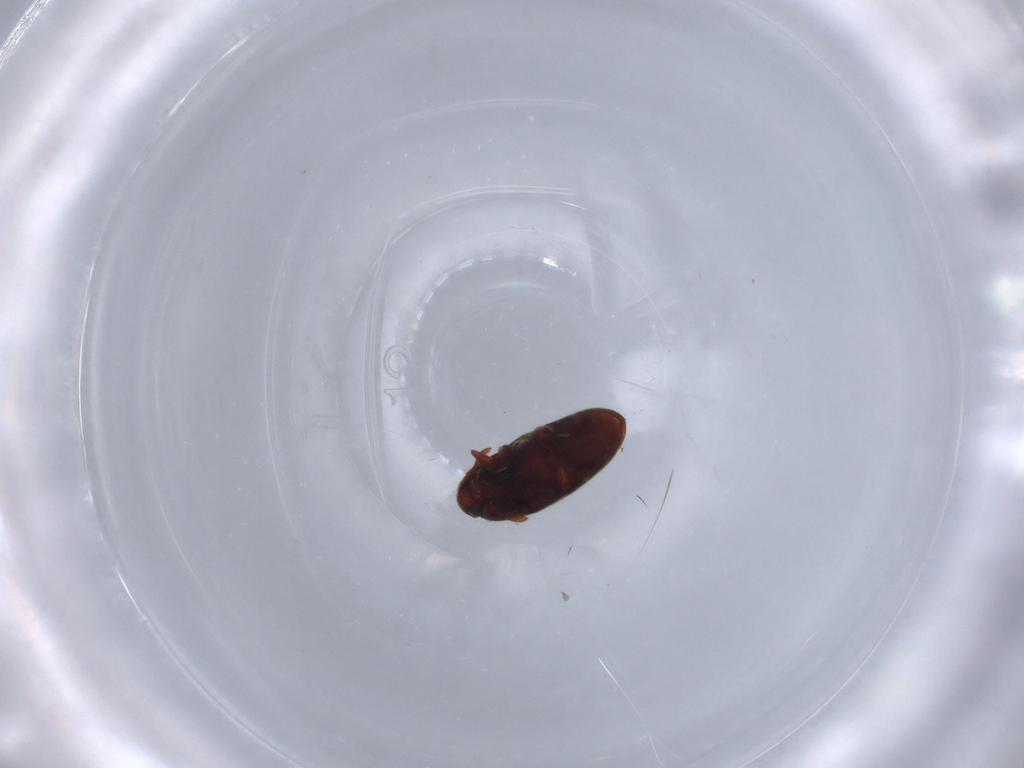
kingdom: Animalia
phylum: Arthropoda
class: Insecta
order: Coleoptera
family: Throscidae
